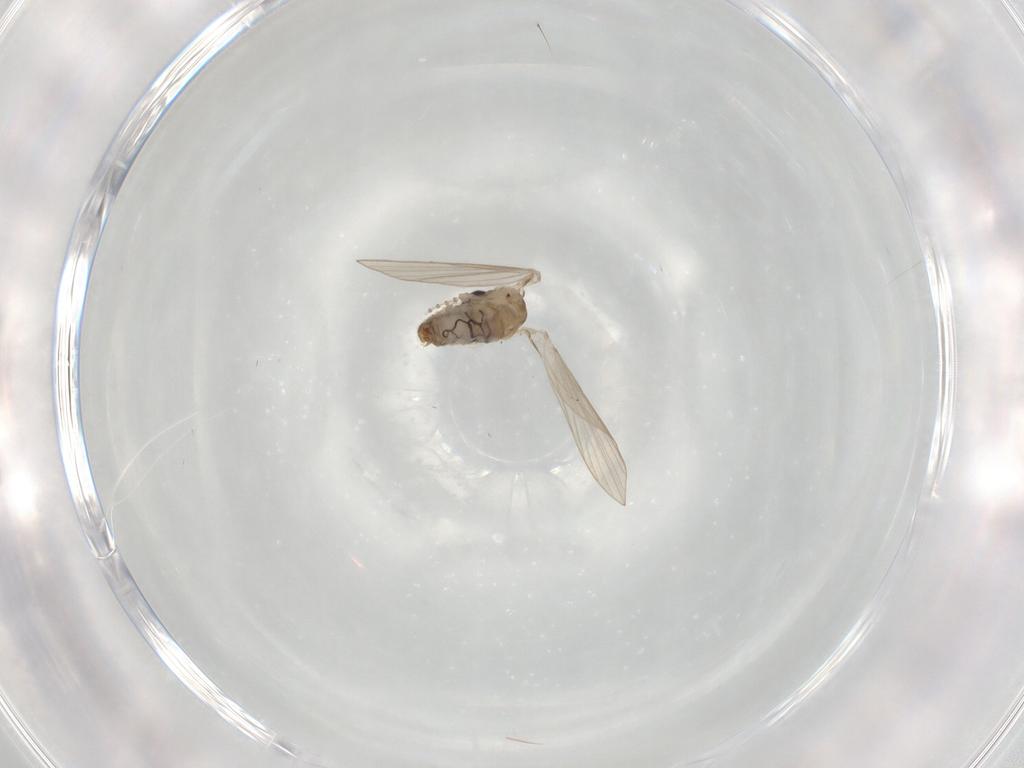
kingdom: Animalia
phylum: Arthropoda
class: Insecta
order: Diptera
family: Psychodidae
